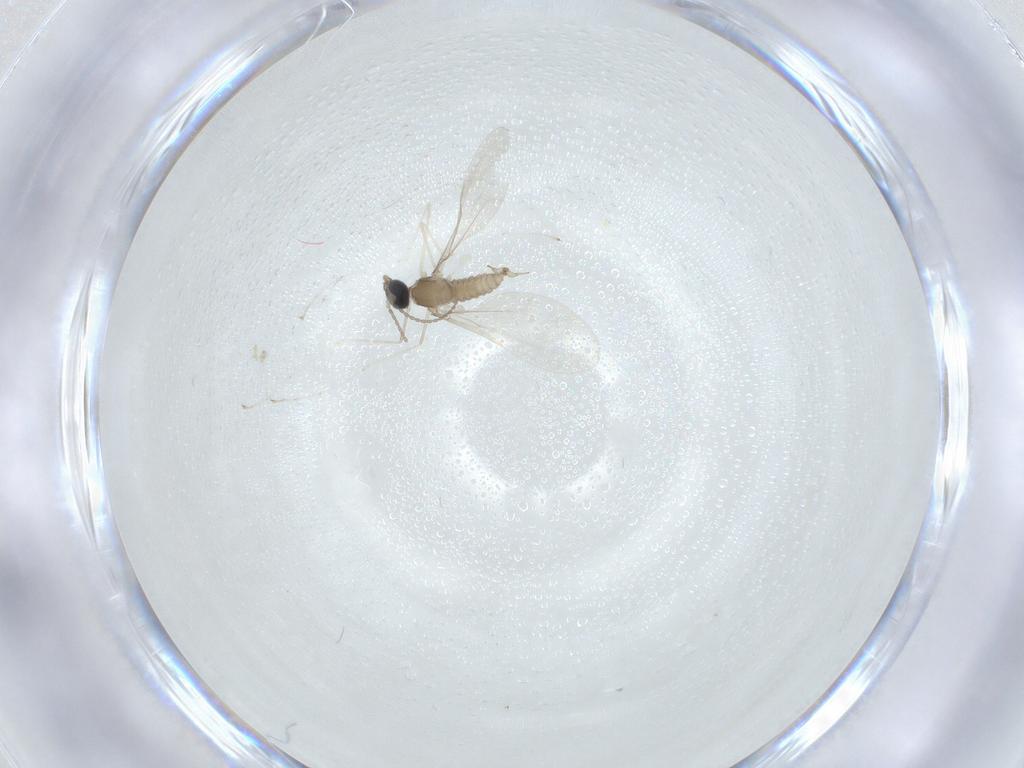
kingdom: Animalia
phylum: Arthropoda
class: Insecta
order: Diptera
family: Cecidomyiidae
